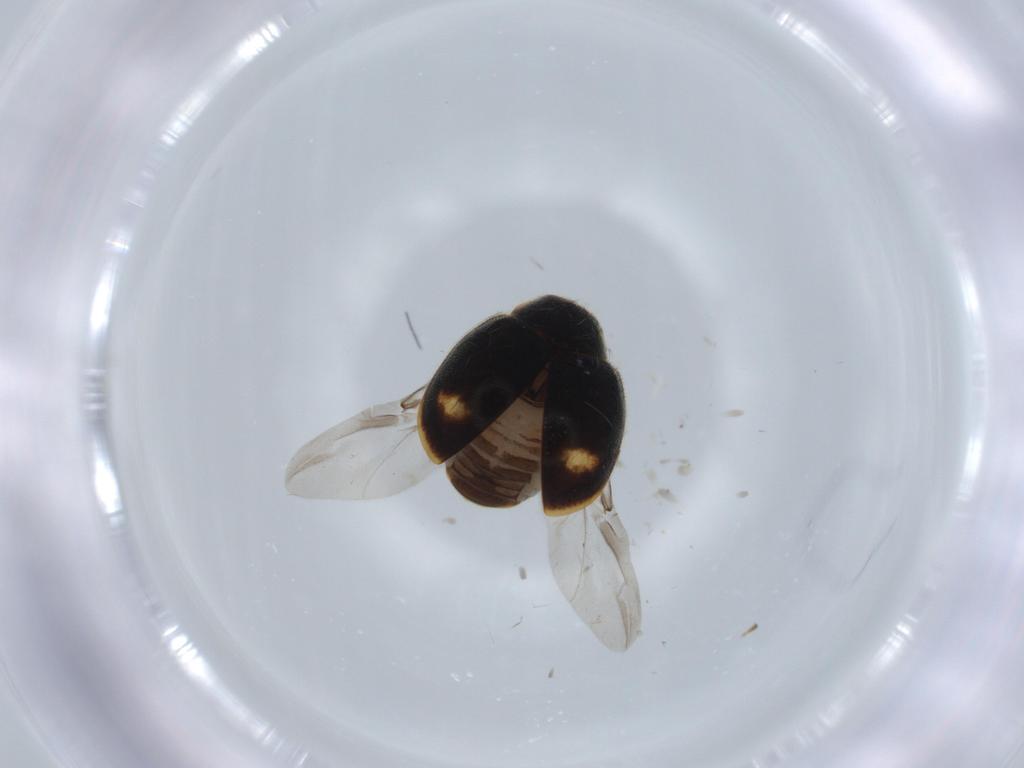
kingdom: Animalia
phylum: Arthropoda
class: Insecta
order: Coleoptera
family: Chrysomelidae
